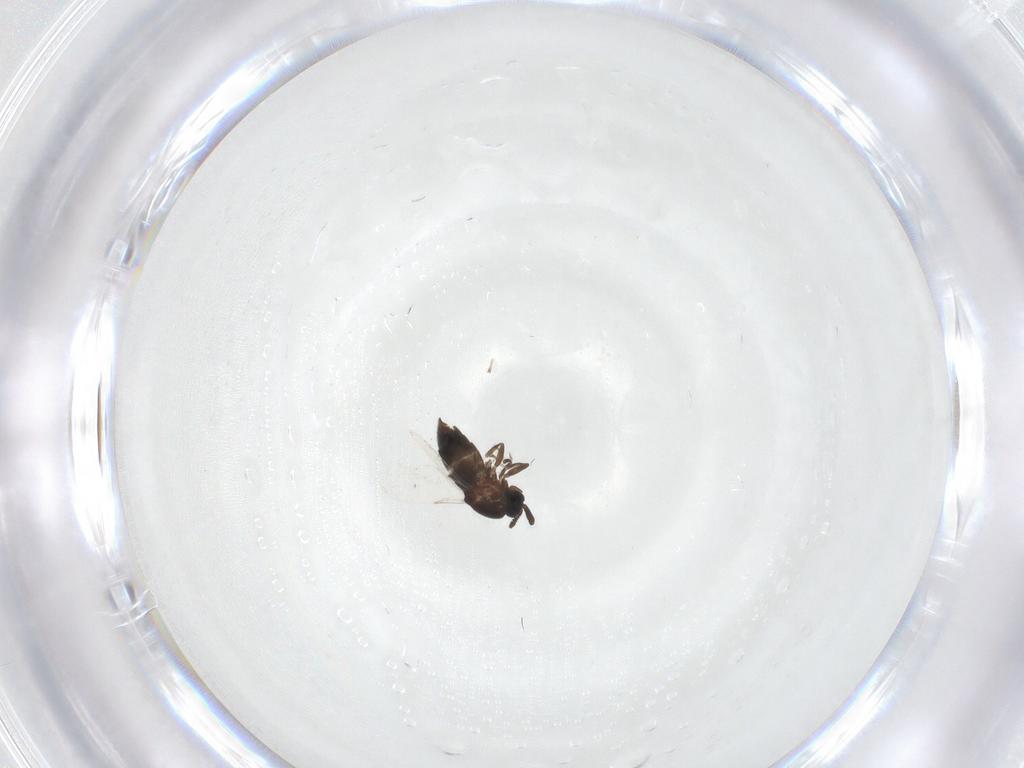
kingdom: Animalia
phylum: Arthropoda
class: Insecta
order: Diptera
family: Scatopsidae
